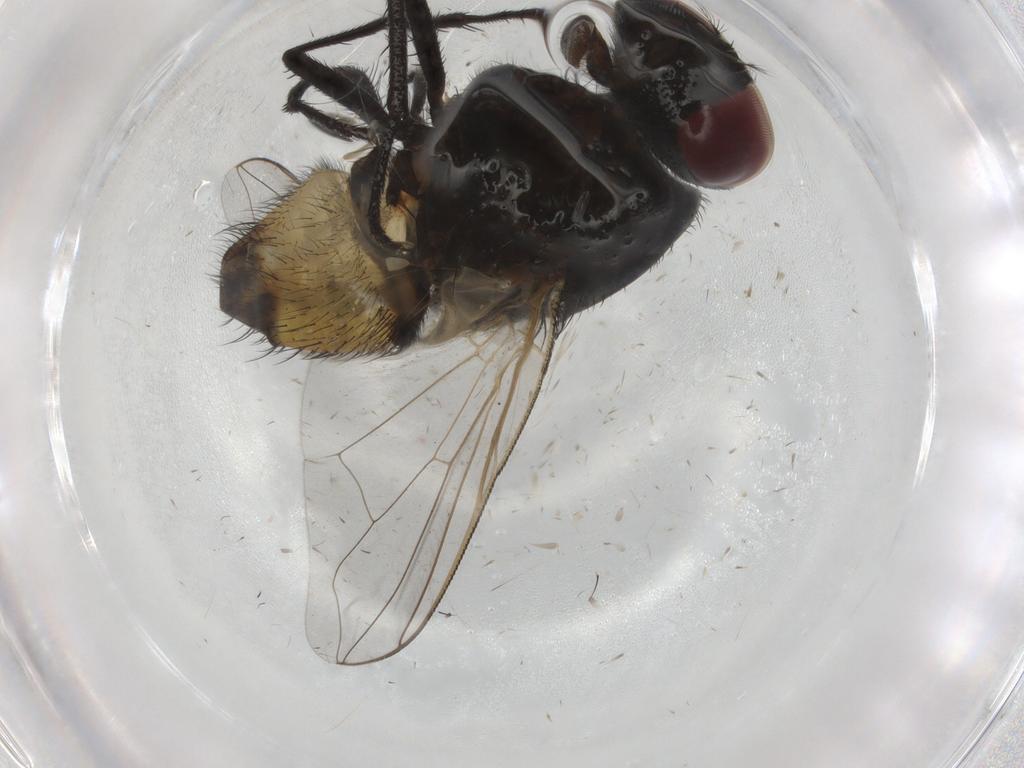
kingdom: Animalia
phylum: Arthropoda
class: Insecta
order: Diptera
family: Muscidae
